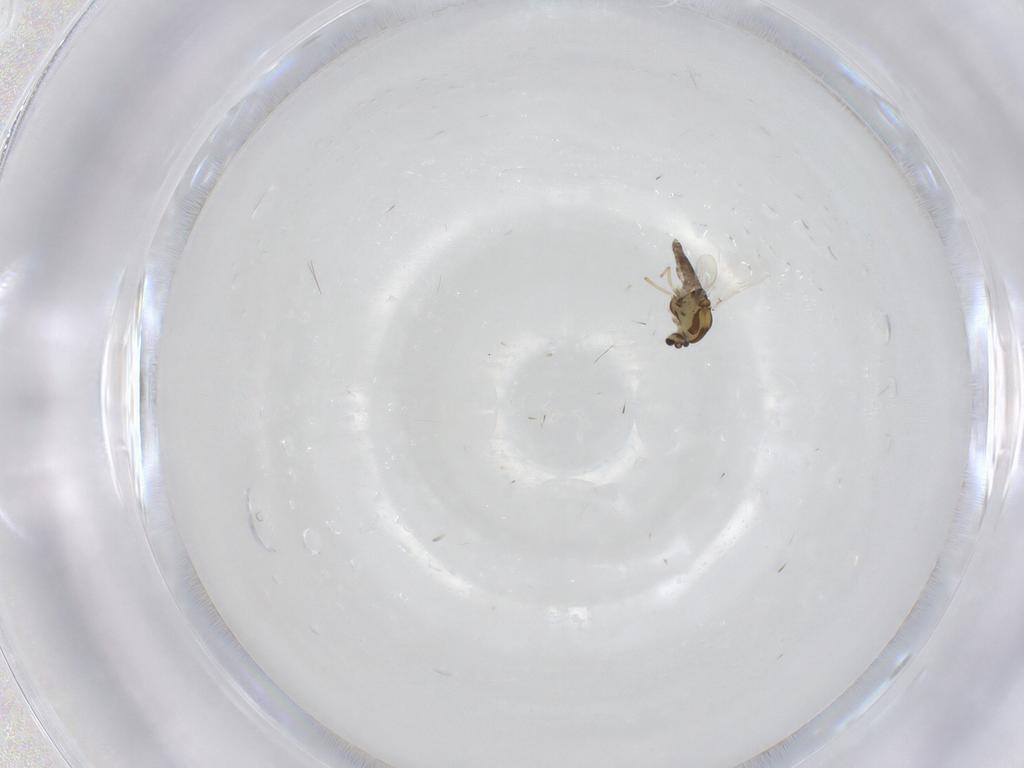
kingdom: Animalia
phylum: Arthropoda
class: Insecta
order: Diptera
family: Chironomidae
